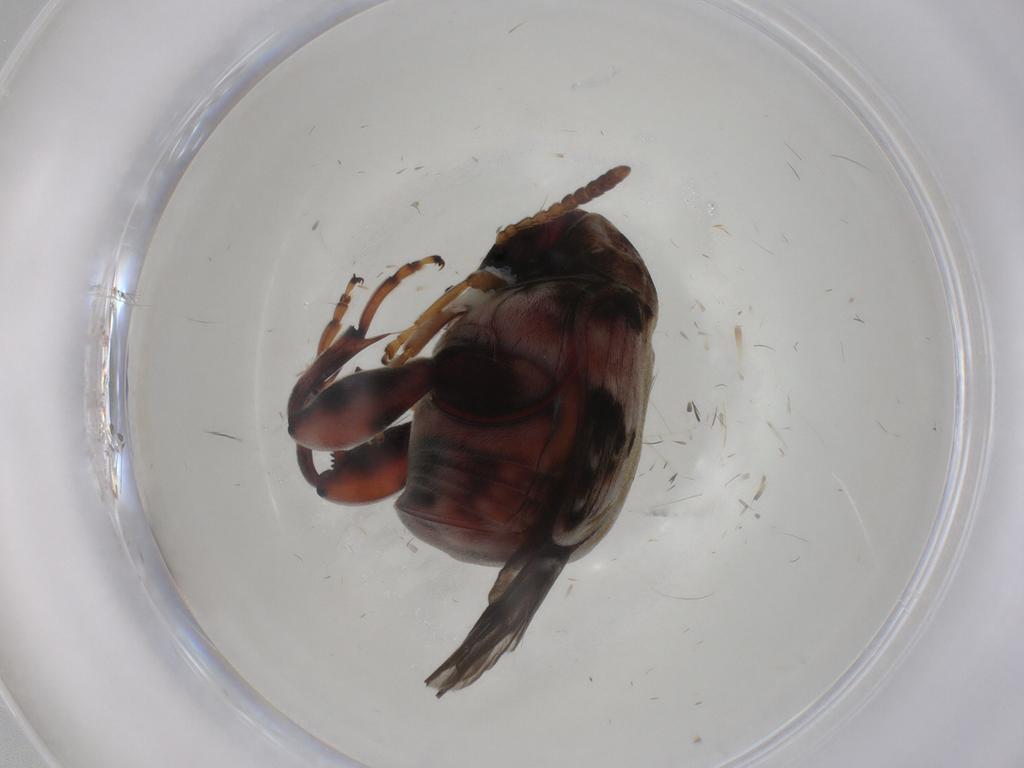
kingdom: Animalia
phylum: Arthropoda
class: Insecta
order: Coleoptera
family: Chrysomelidae
